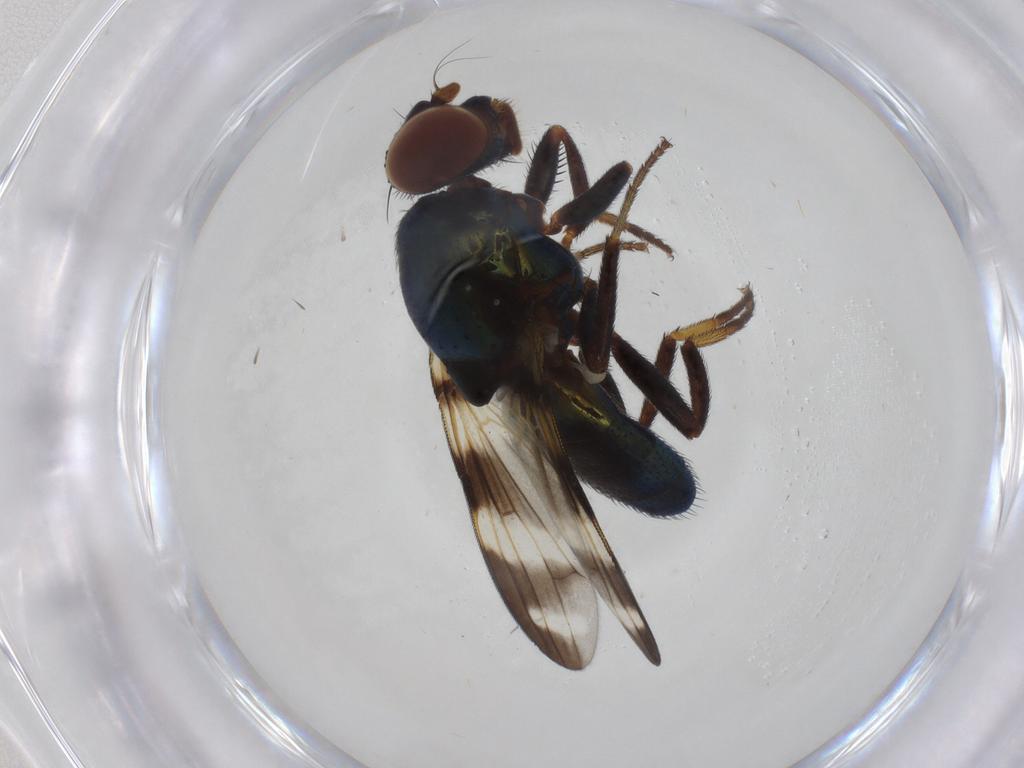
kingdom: Animalia
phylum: Arthropoda
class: Insecta
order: Diptera
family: Ulidiidae
